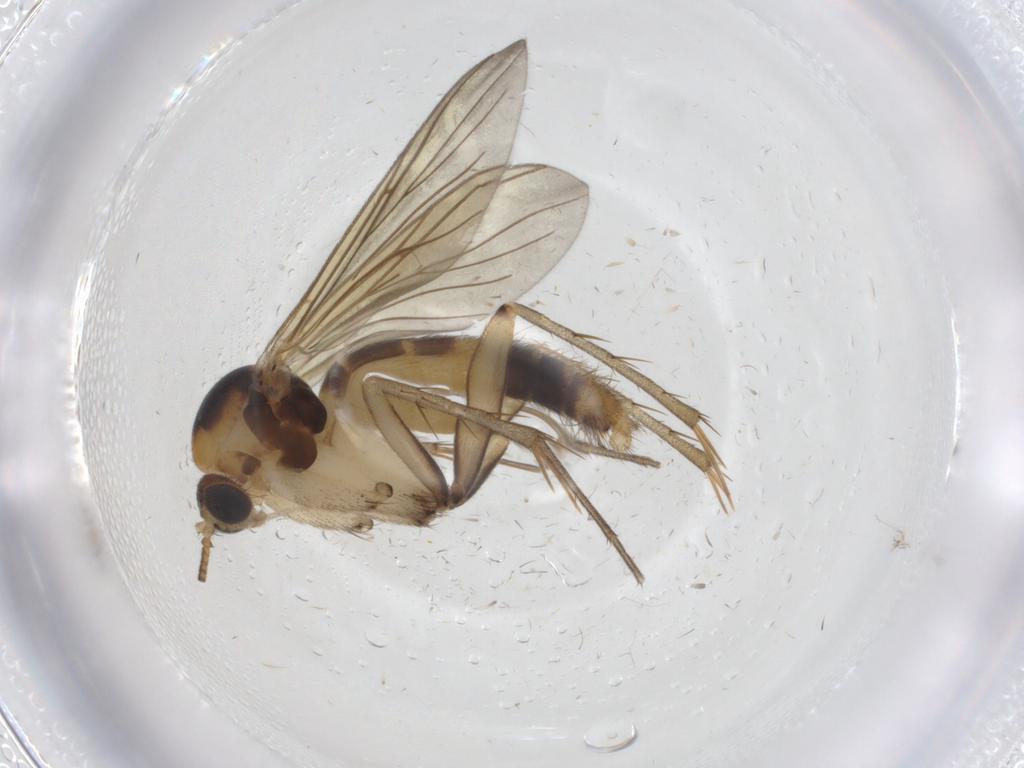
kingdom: Animalia
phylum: Arthropoda
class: Insecta
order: Diptera
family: Mycetophilidae
